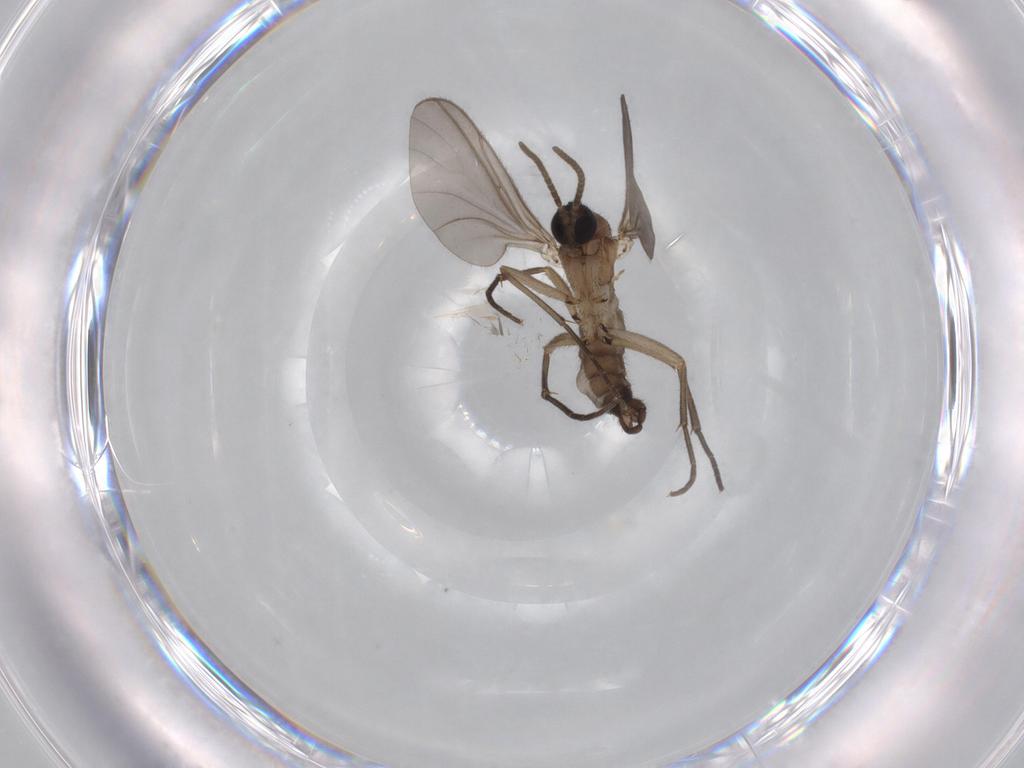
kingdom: Animalia
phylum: Arthropoda
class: Insecta
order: Diptera
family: Sciaridae
